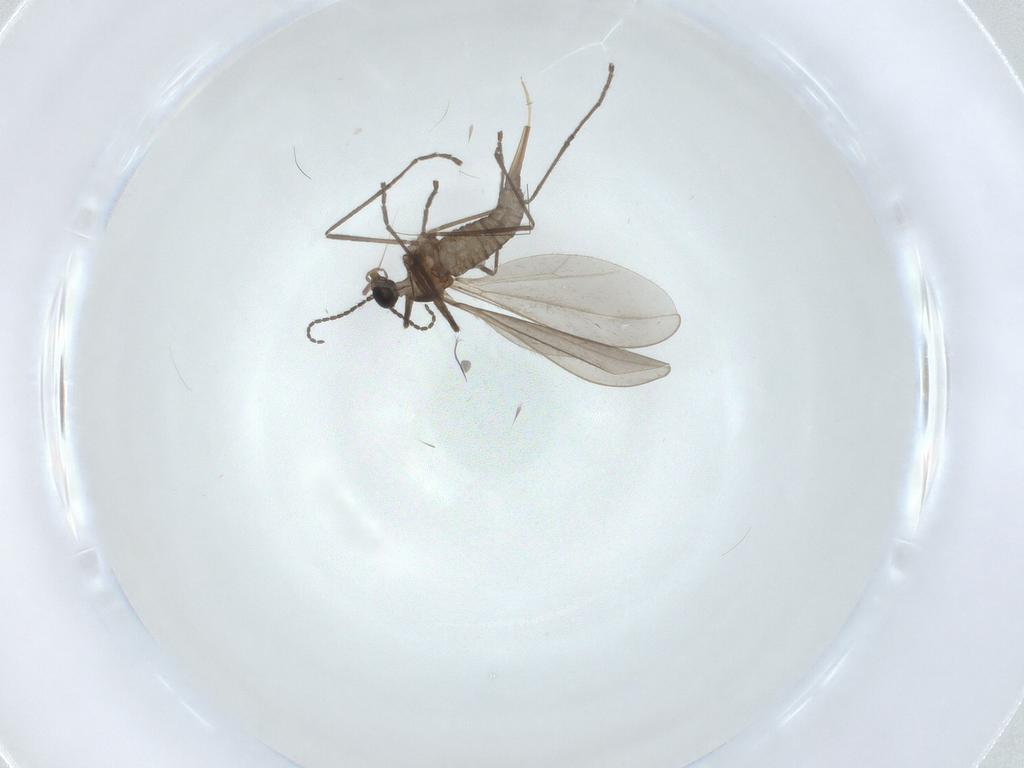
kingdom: Animalia
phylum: Arthropoda
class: Insecta
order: Diptera
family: Cecidomyiidae
